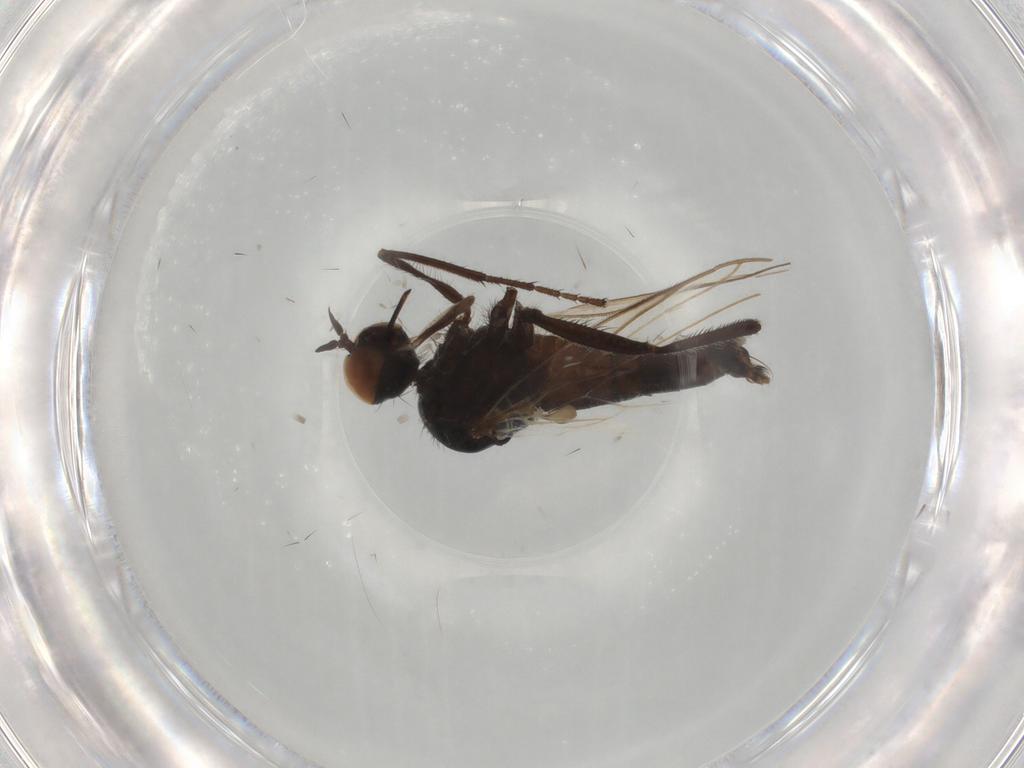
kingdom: Animalia
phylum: Arthropoda
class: Insecta
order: Diptera
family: Empididae
